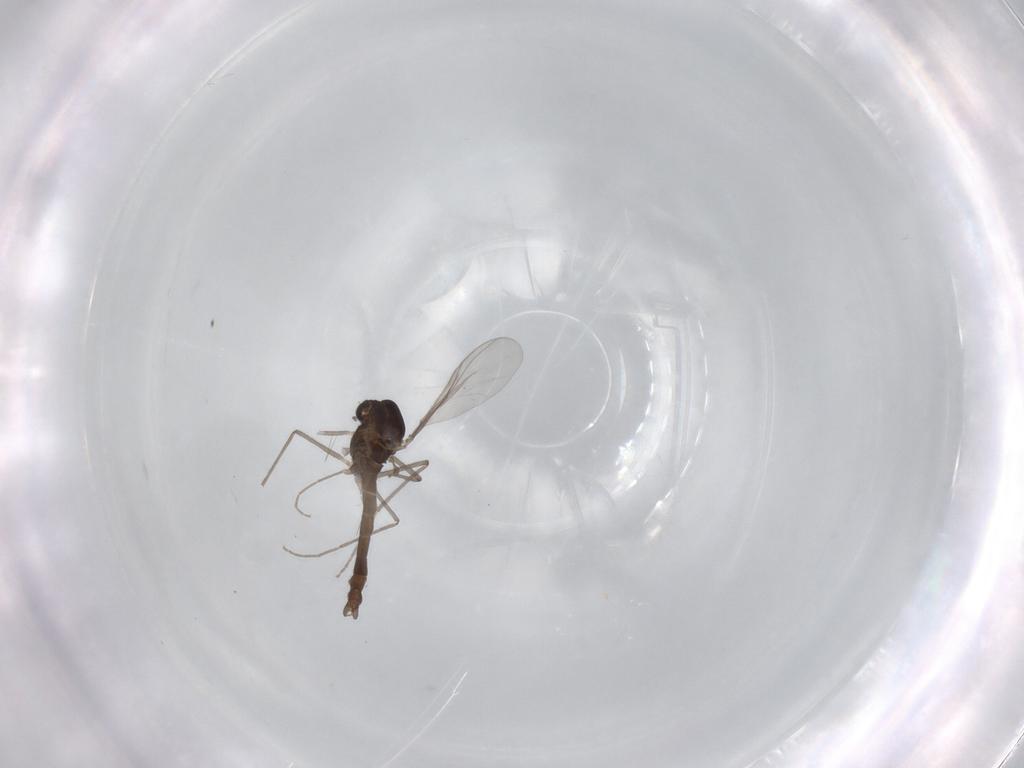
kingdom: Animalia
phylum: Arthropoda
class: Insecta
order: Diptera
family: Chironomidae
